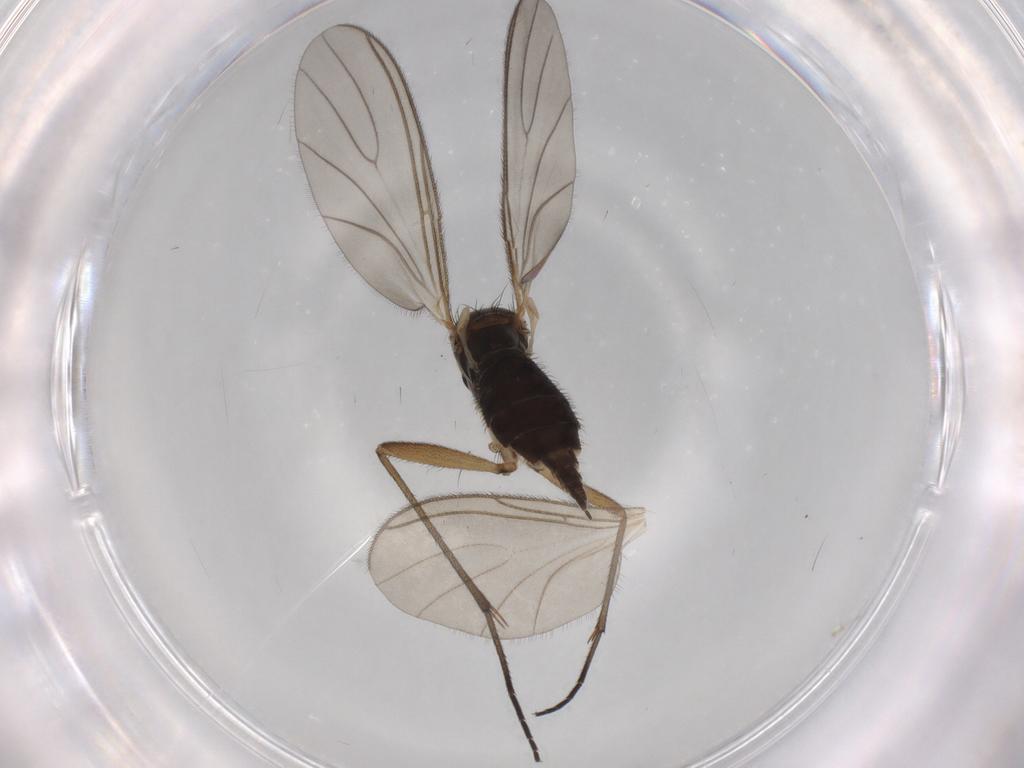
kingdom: Animalia
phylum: Arthropoda
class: Insecta
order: Diptera
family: Sciaridae
